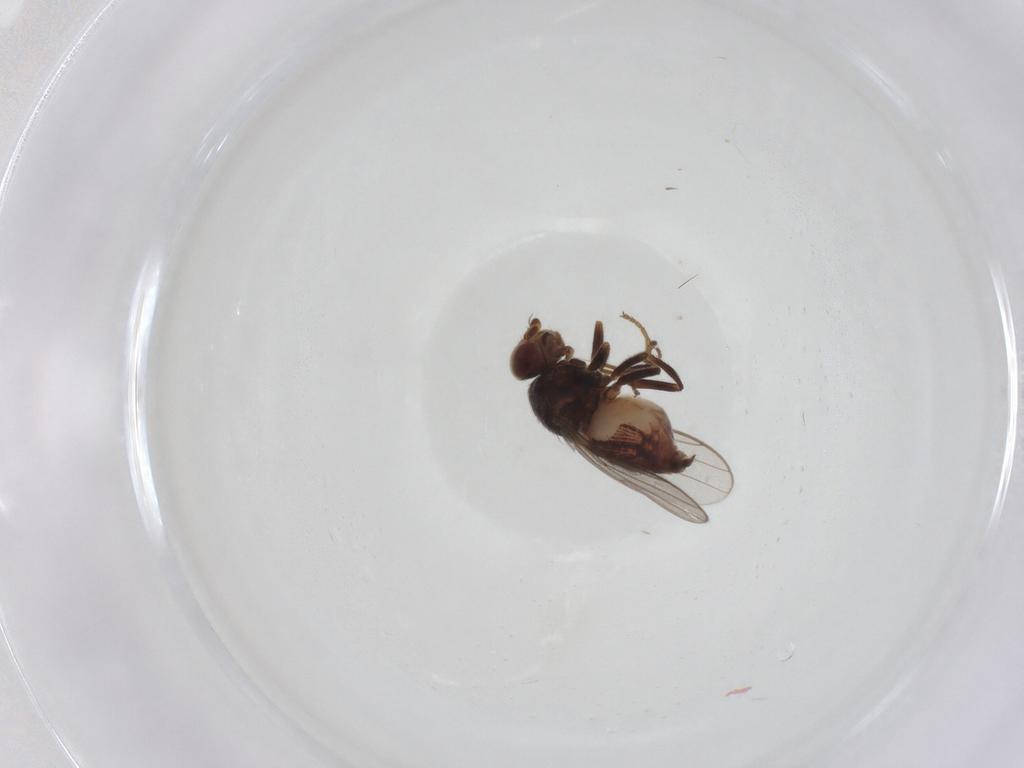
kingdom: Animalia
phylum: Arthropoda
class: Insecta
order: Diptera
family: Chloropidae
